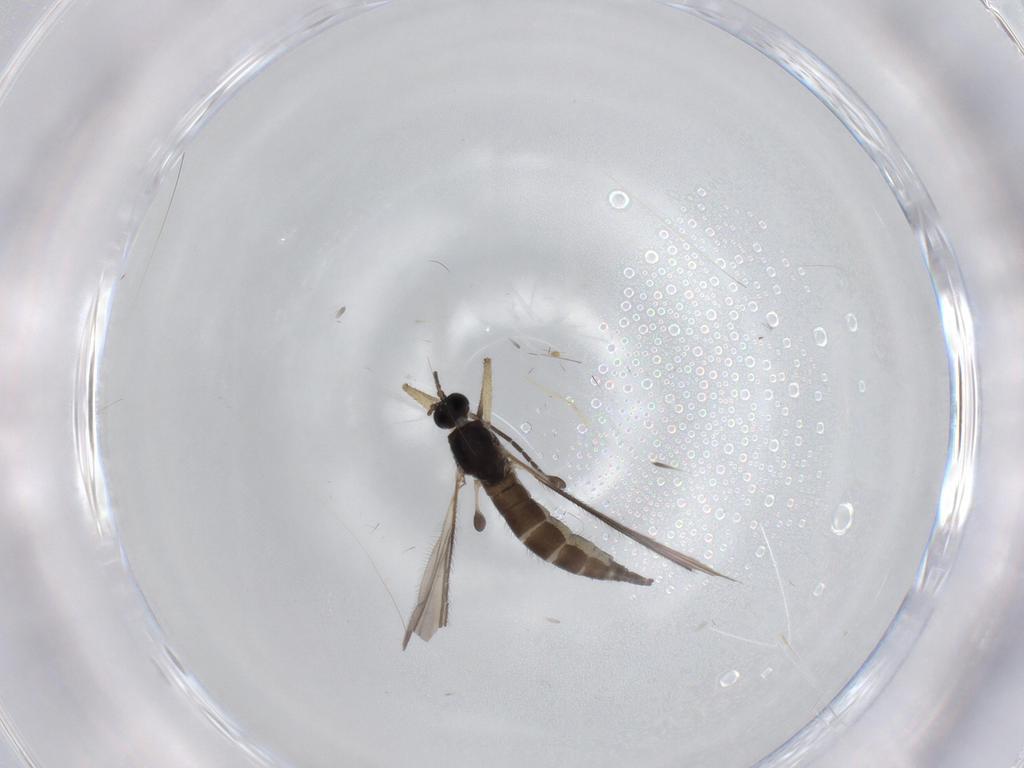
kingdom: Animalia
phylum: Arthropoda
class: Insecta
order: Diptera
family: Sciaridae
